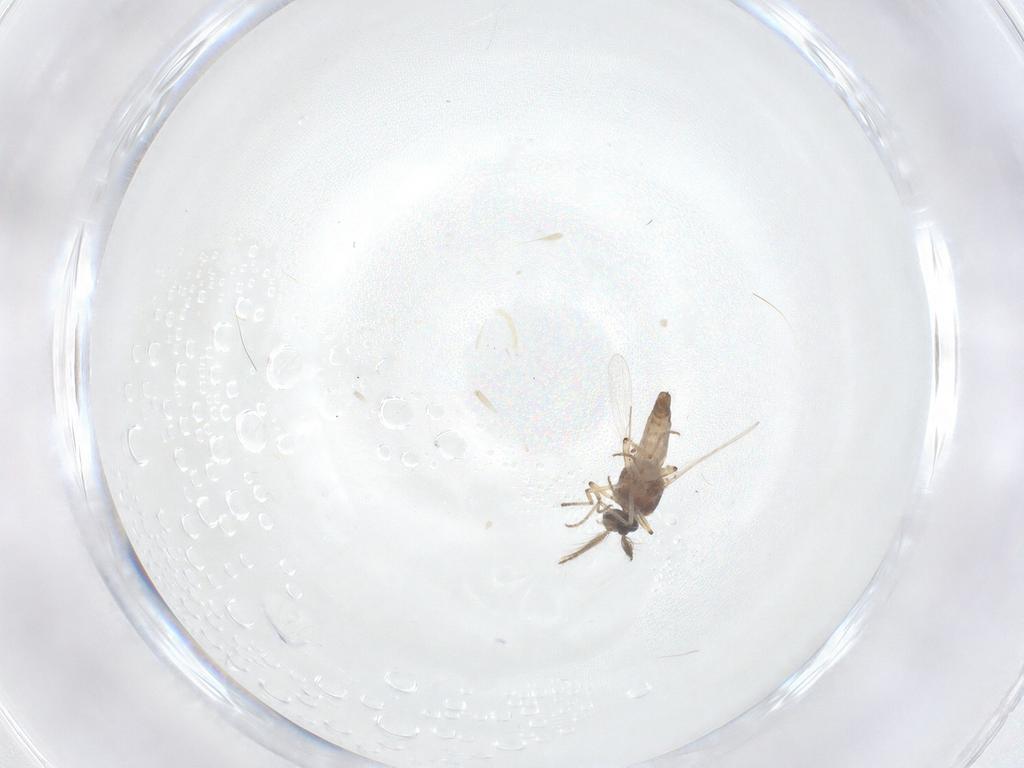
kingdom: Animalia
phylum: Arthropoda
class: Insecta
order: Diptera
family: Ceratopogonidae
